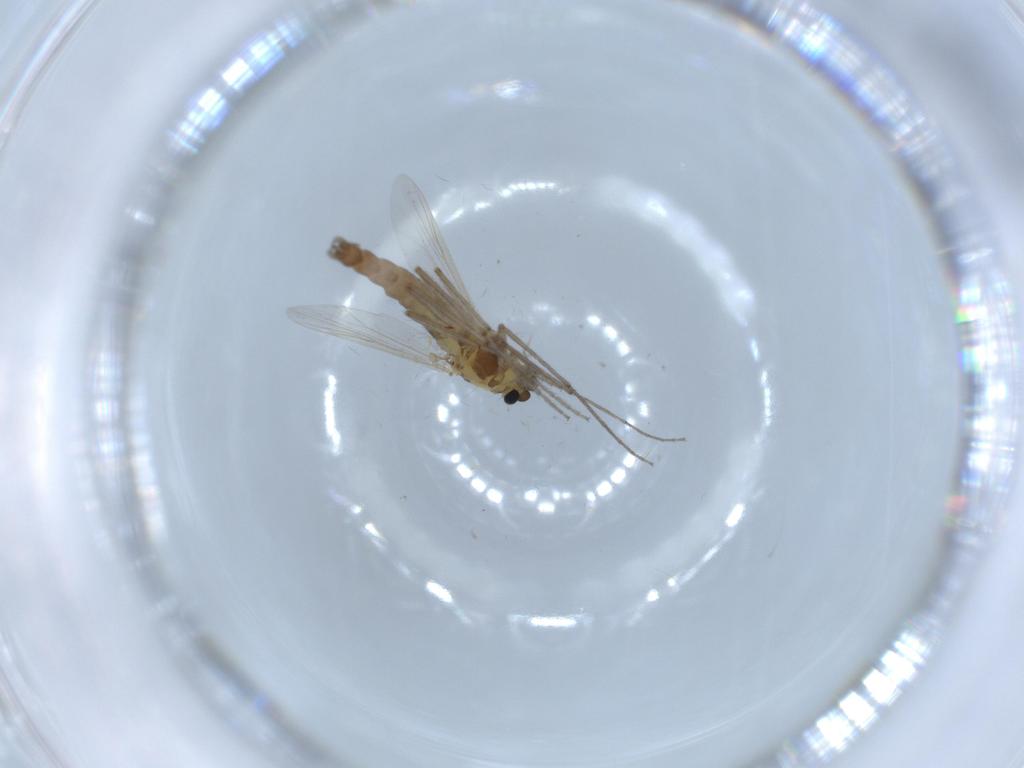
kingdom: Animalia
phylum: Arthropoda
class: Insecta
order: Diptera
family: Chironomidae
